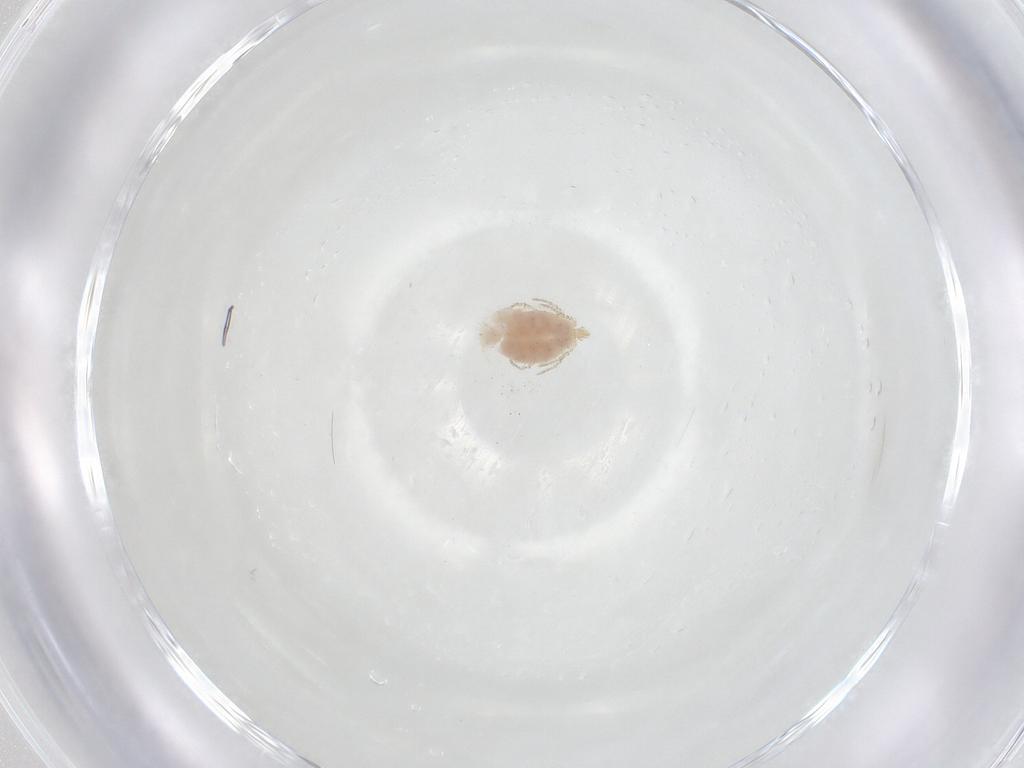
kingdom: Animalia
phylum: Arthropoda
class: Arachnida
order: Trombidiformes
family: Erythraeidae
